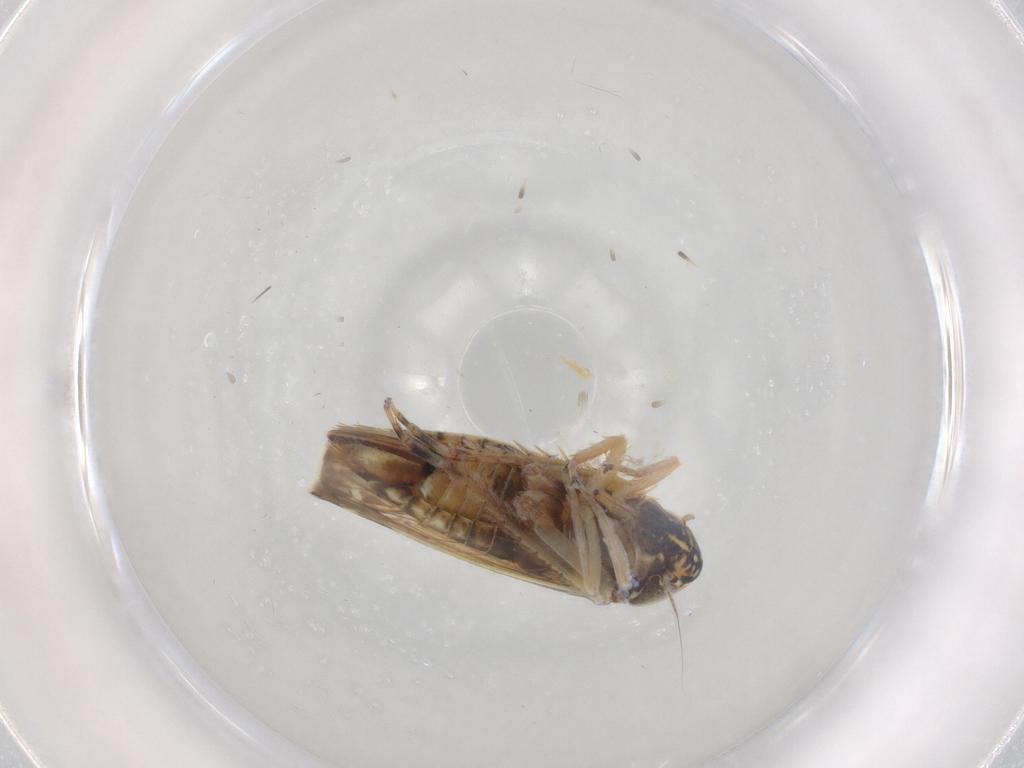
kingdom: Animalia
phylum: Arthropoda
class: Insecta
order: Hemiptera
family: Cicadellidae
